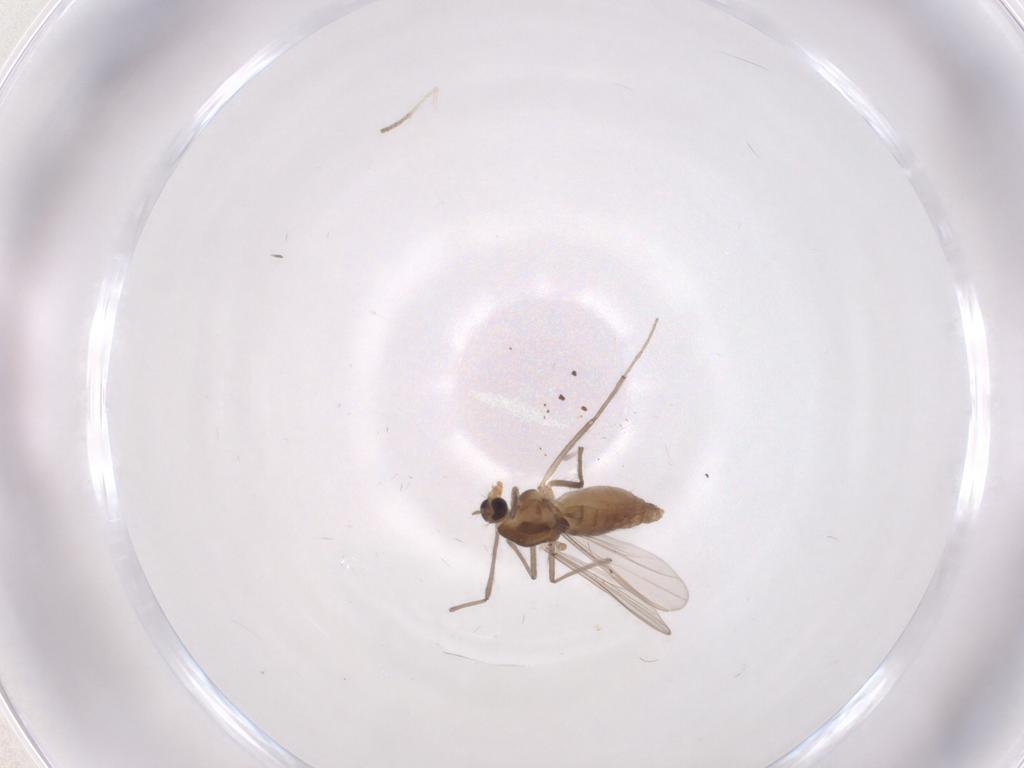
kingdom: Animalia
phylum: Arthropoda
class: Insecta
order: Diptera
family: Chironomidae
